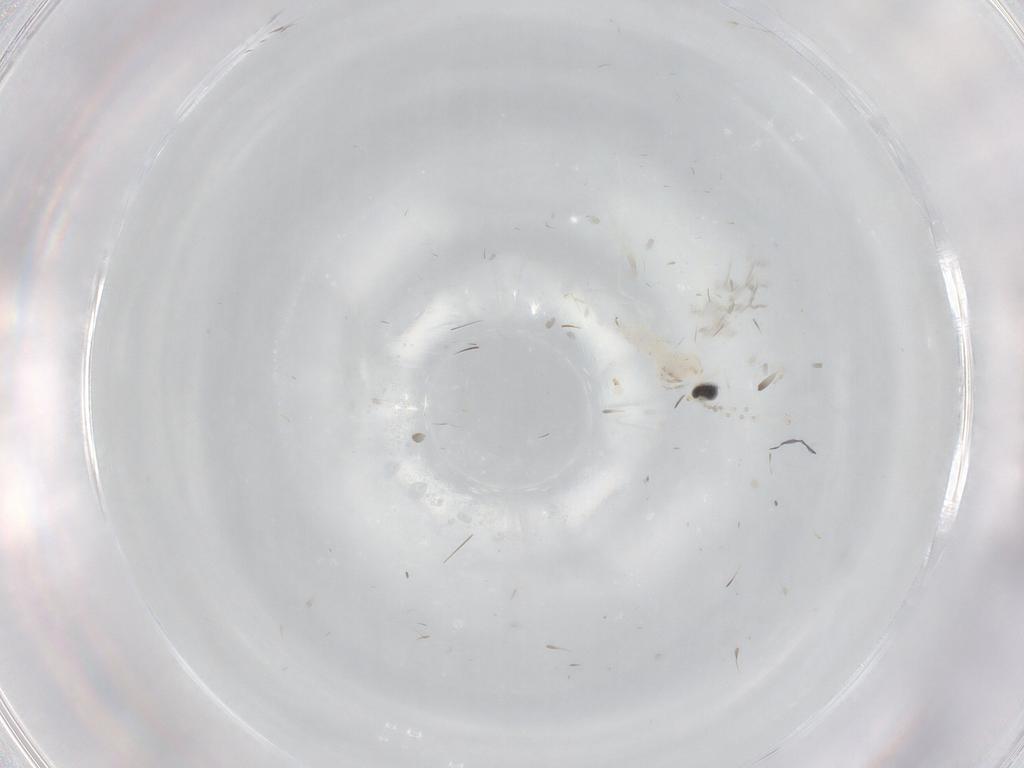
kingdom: Animalia
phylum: Arthropoda
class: Insecta
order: Diptera
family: Cecidomyiidae
